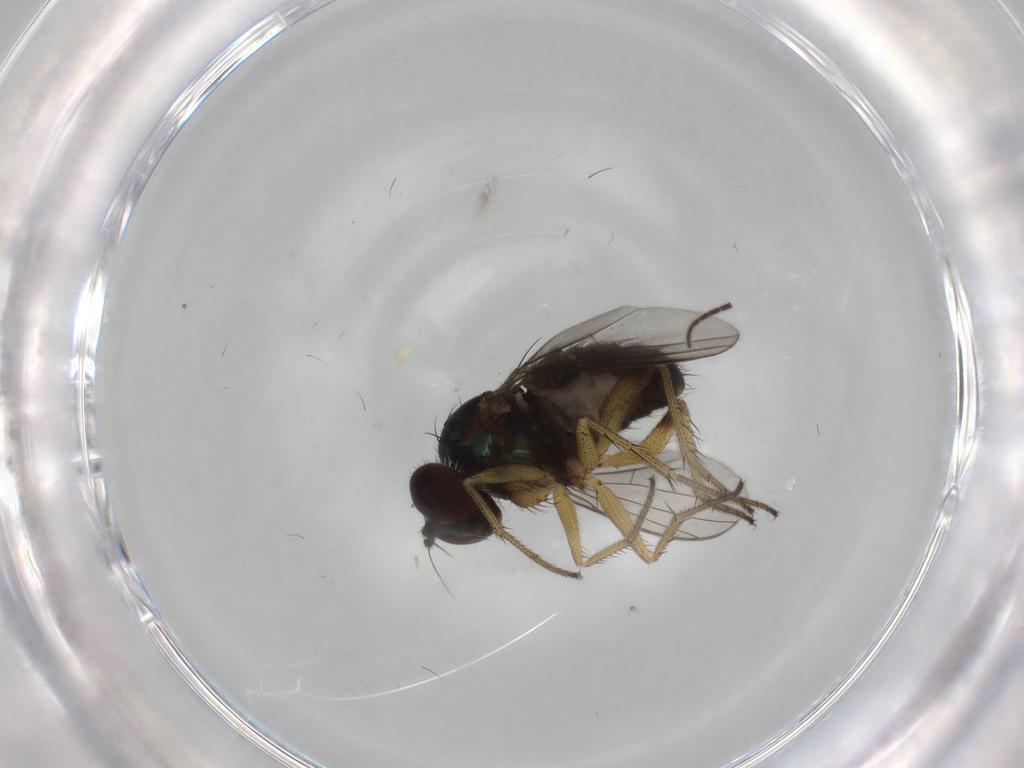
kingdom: Animalia
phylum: Arthropoda
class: Insecta
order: Diptera
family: Dolichopodidae
